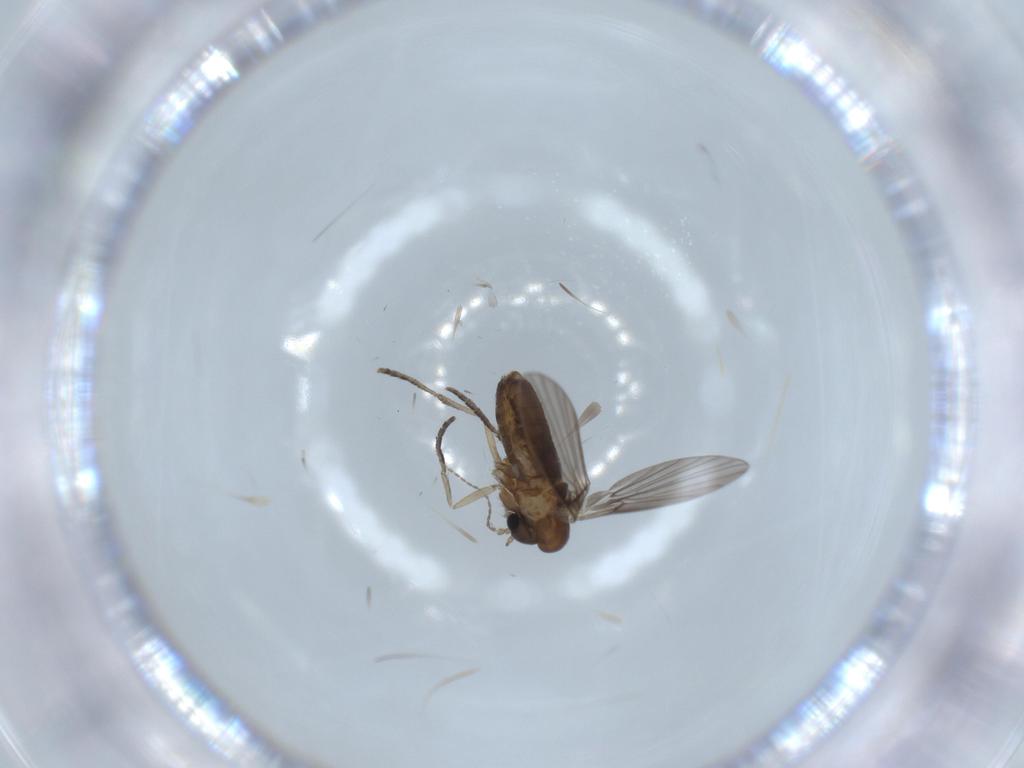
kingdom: Animalia
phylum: Arthropoda
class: Insecta
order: Diptera
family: Psychodidae
